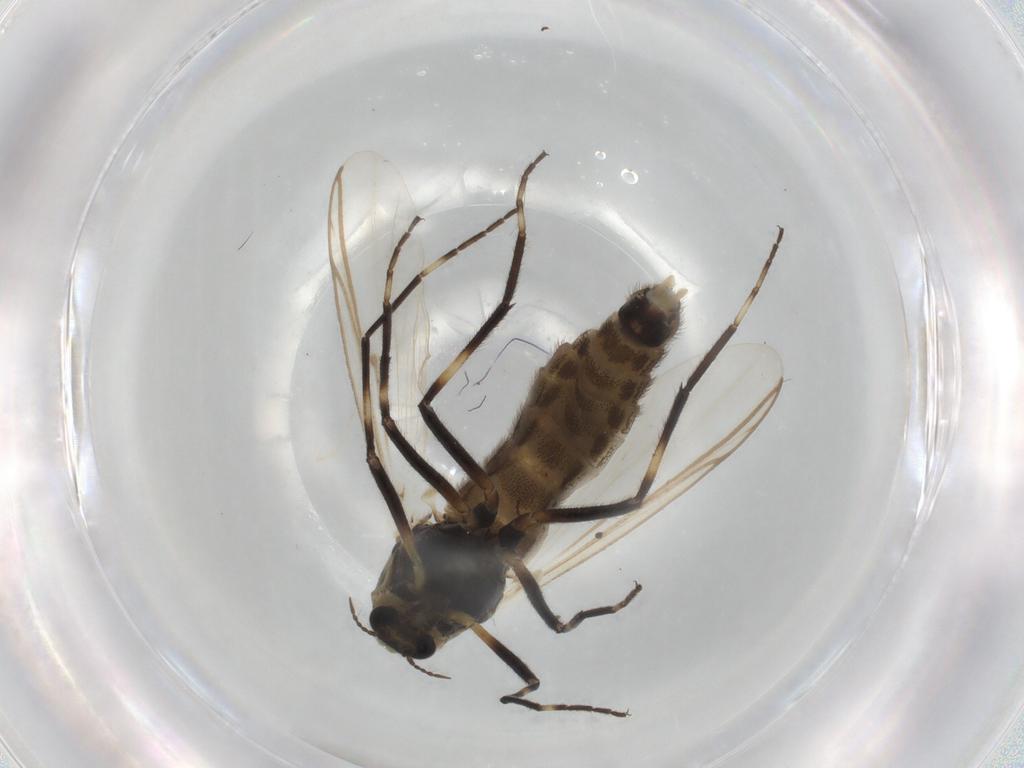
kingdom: Animalia
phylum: Arthropoda
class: Insecta
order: Diptera
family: Chironomidae
